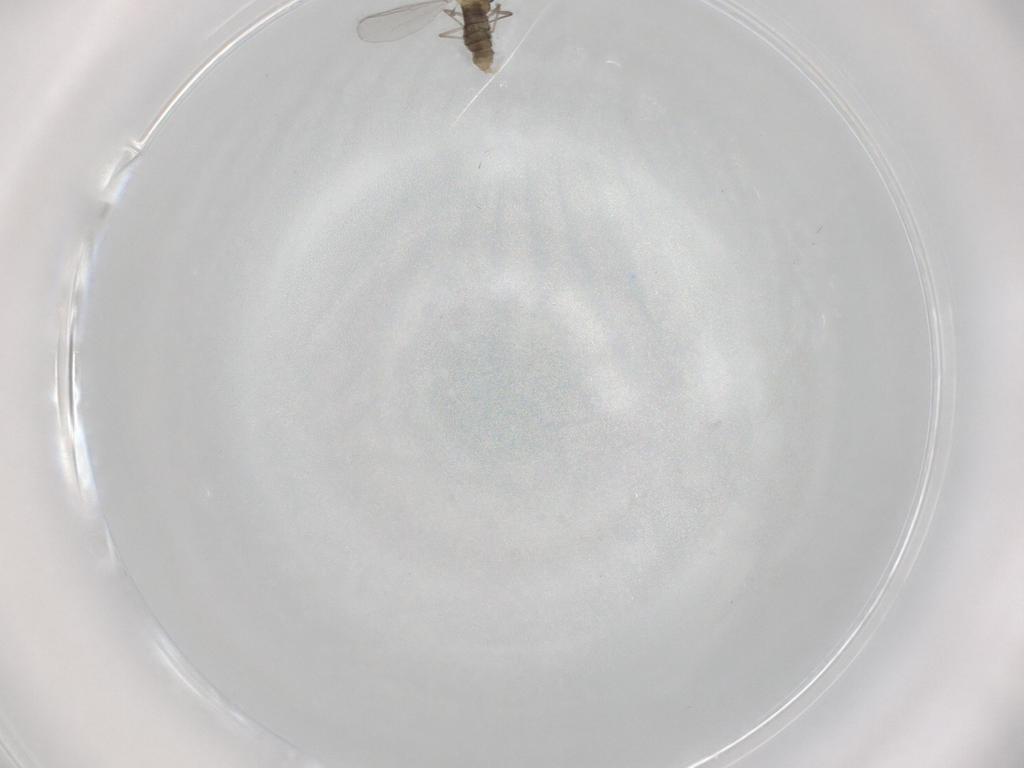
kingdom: Animalia
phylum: Arthropoda
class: Insecta
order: Diptera
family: Chironomidae
